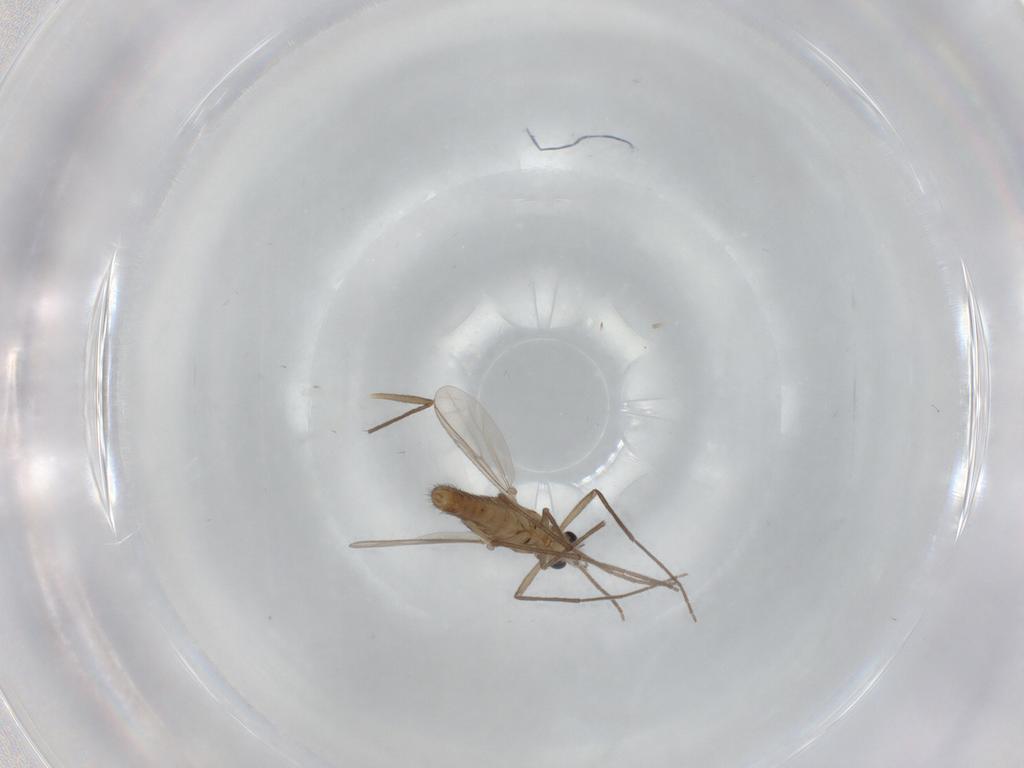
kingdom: Animalia
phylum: Arthropoda
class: Insecta
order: Diptera
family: Chironomidae
